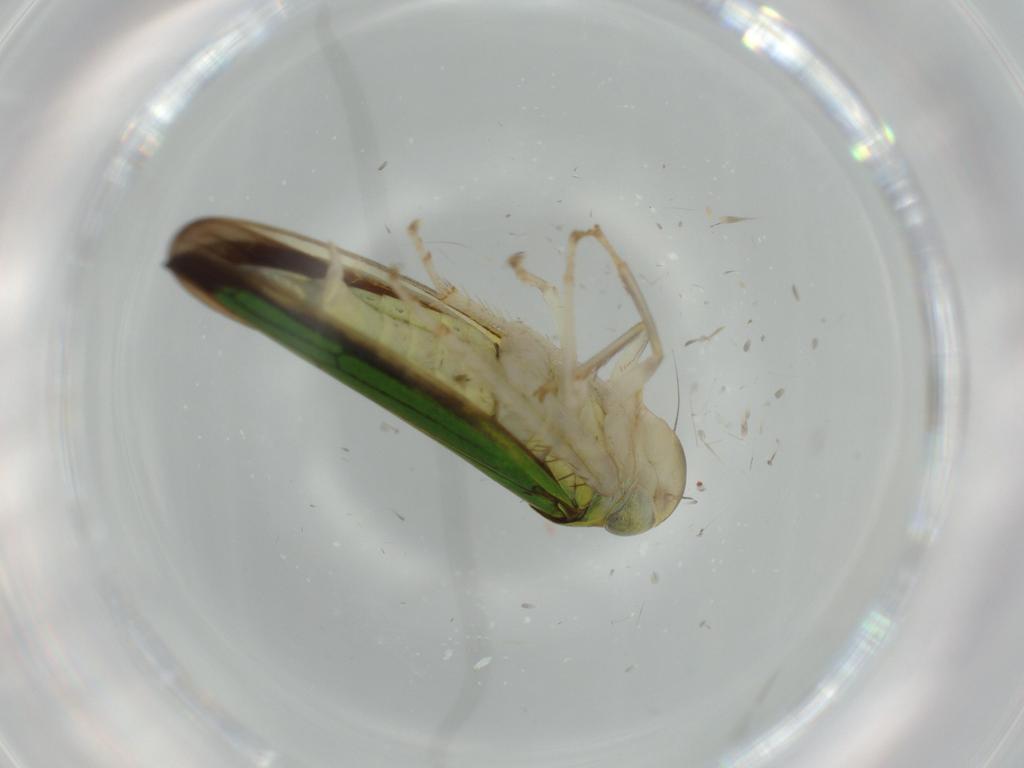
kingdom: Animalia
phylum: Arthropoda
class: Insecta
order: Hemiptera
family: Cicadellidae
